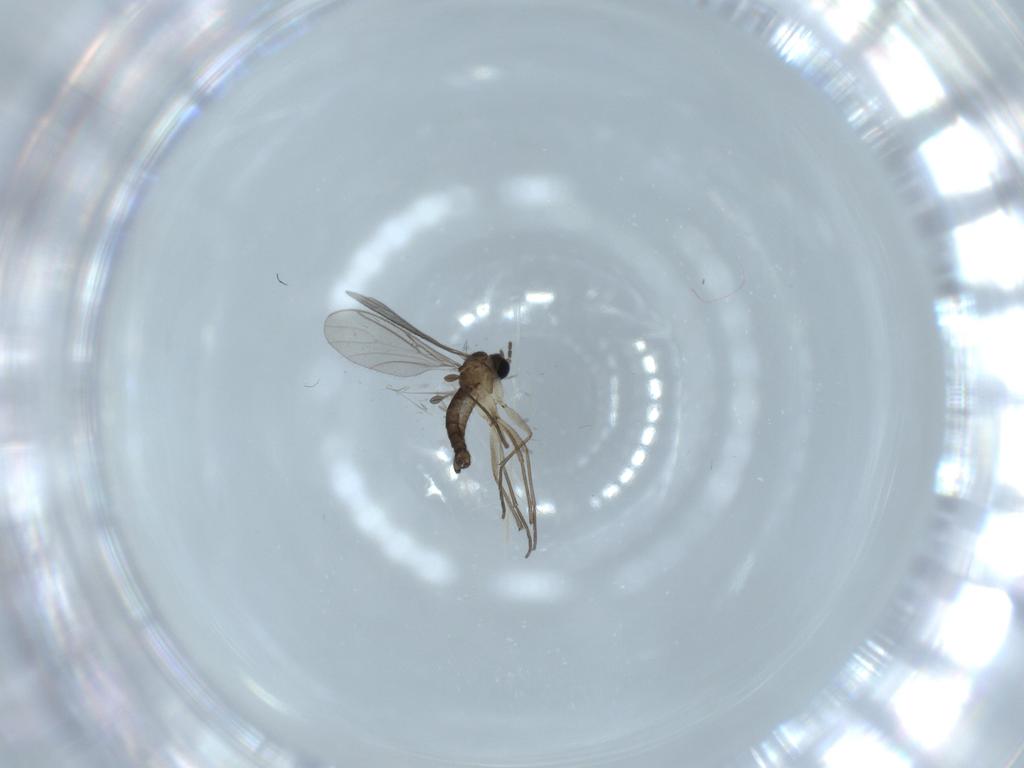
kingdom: Animalia
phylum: Arthropoda
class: Insecta
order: Diptera
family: Sciaridae
